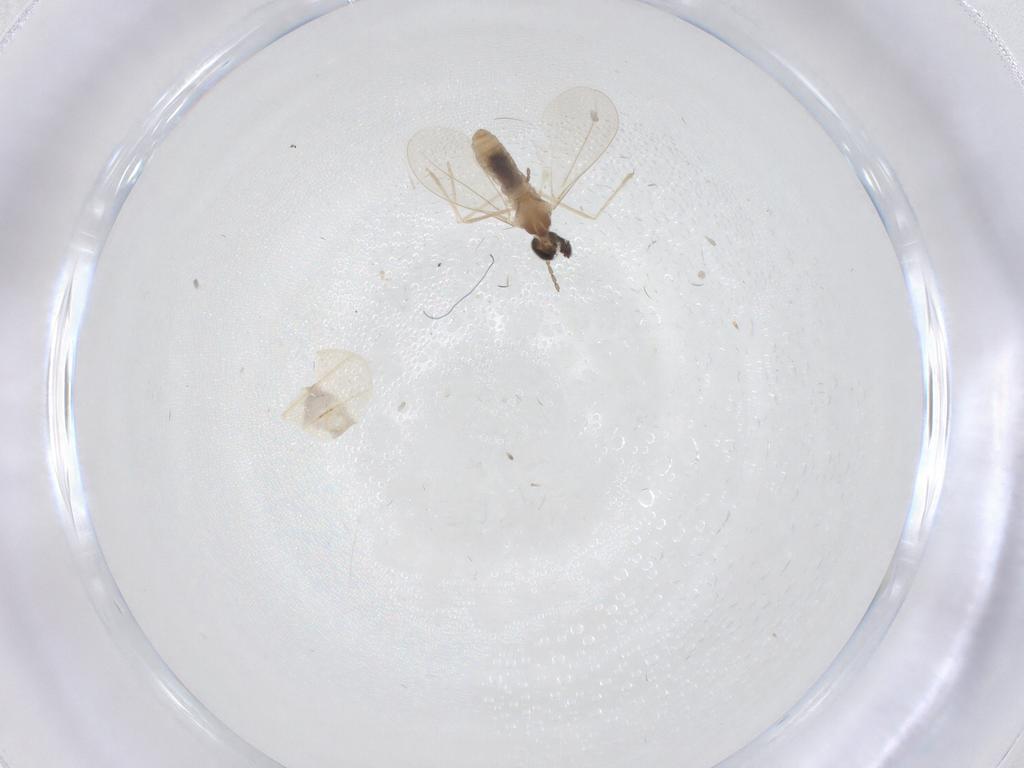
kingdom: Animalia
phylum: Arthropoda
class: Insecta
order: Diptera
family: Cecidomyiidae
